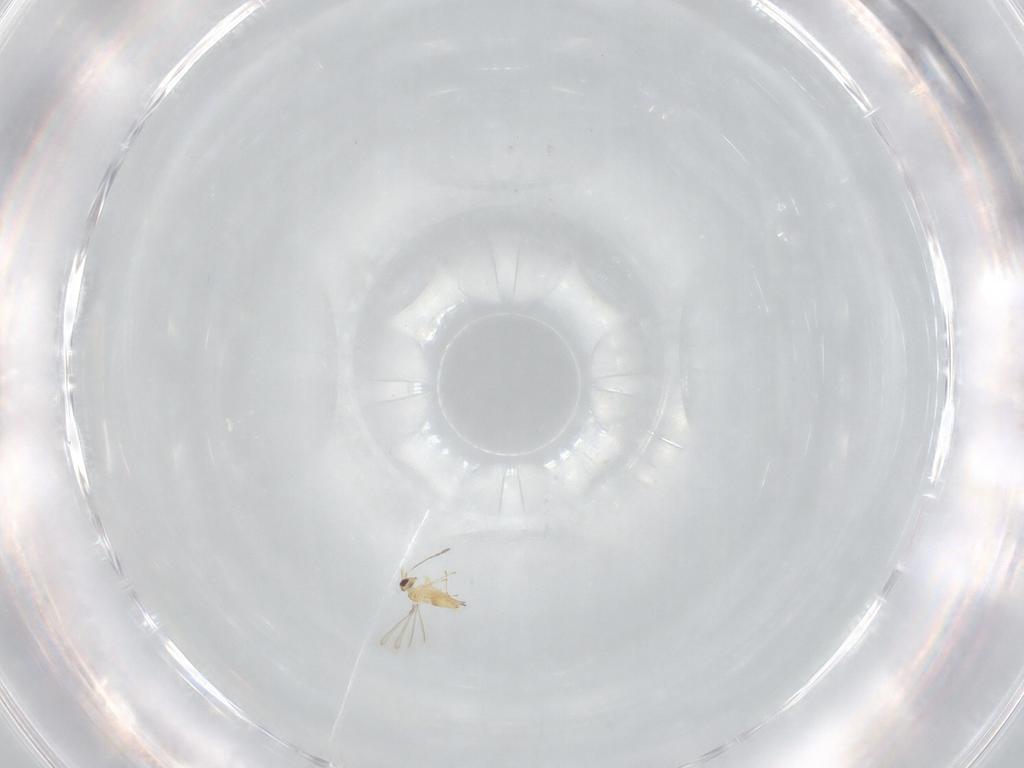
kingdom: Animalia
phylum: Arthropoda
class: Insecta
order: Hymenoptera
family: Mymaridae
